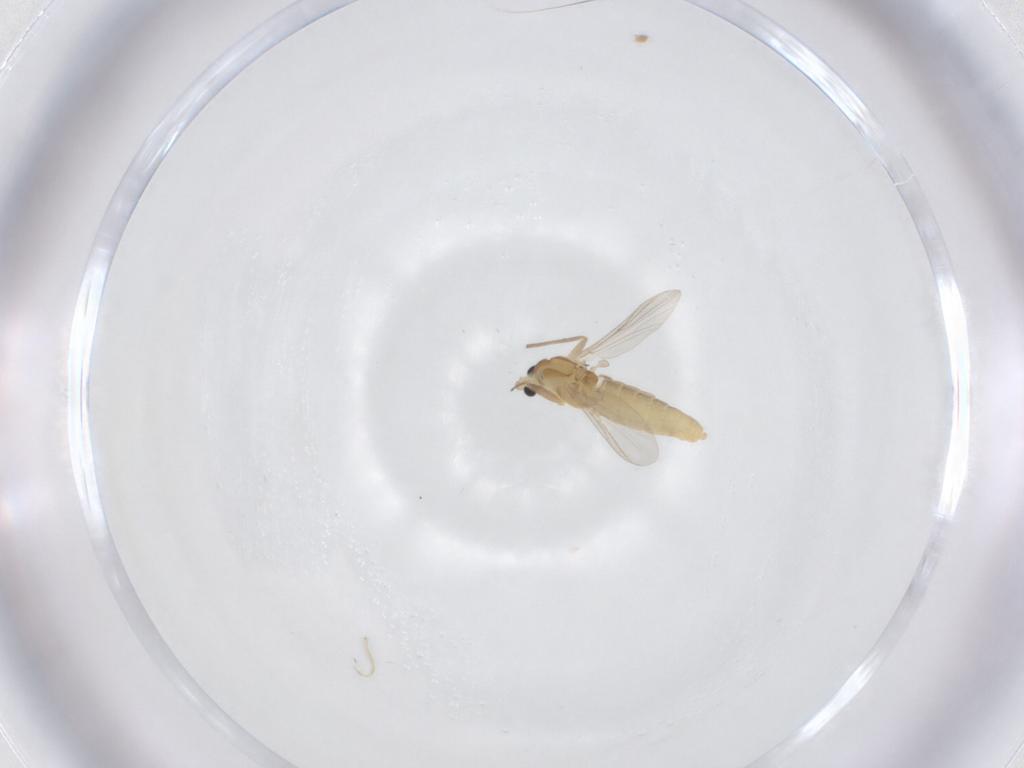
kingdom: Animalia
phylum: Arthropoda
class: Insecta
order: Diptera
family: Chironomidae
